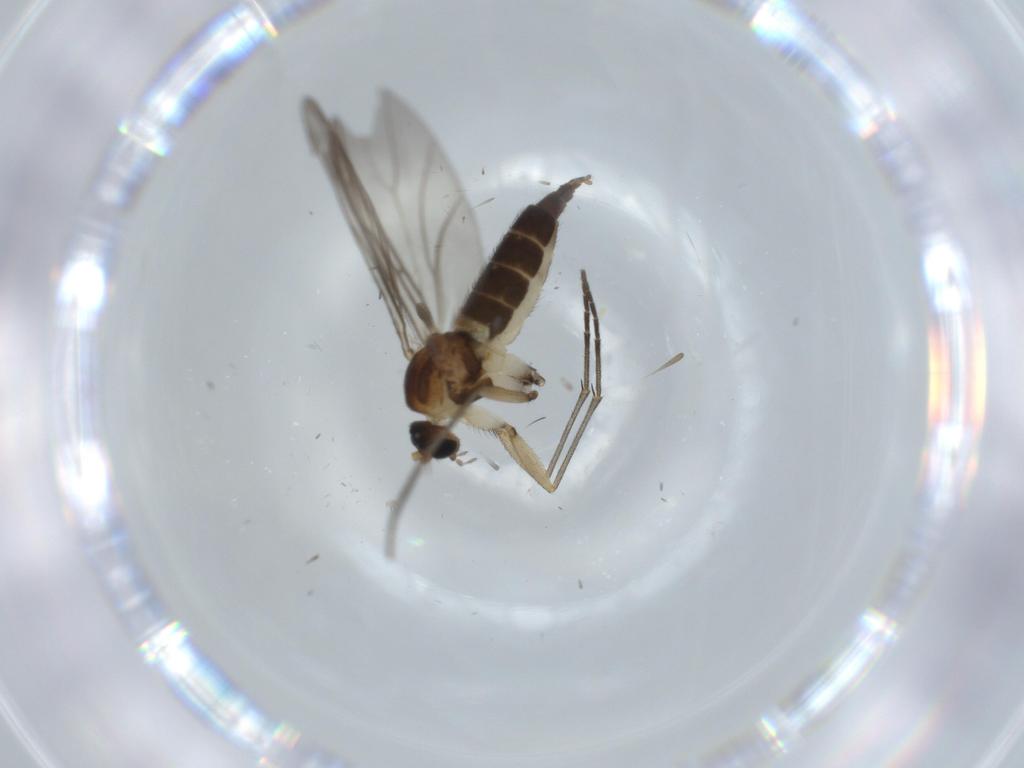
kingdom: Animalia
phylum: Arthropoda
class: Insecta
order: Diptera
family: Sciaridae
